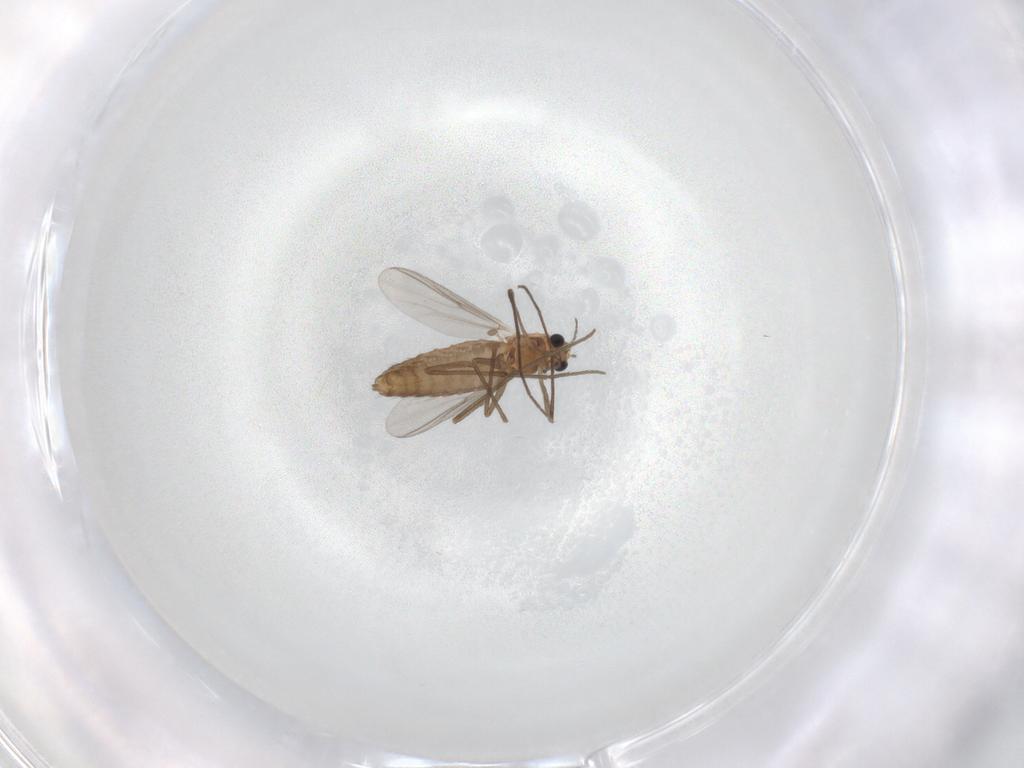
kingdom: Animalia
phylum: Arthropoda
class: Insecta
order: Diptera
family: Chironomidae
